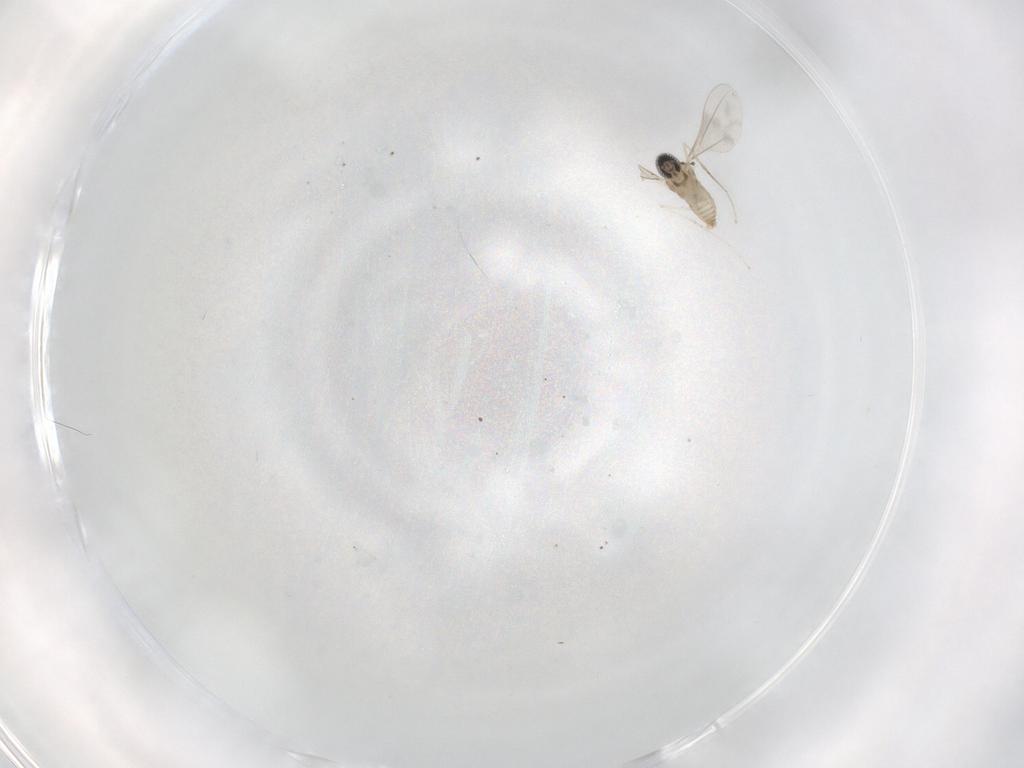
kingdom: Animalia
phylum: Arthropoda
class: Insecta
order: Diptera
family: Cecidomyiidae
